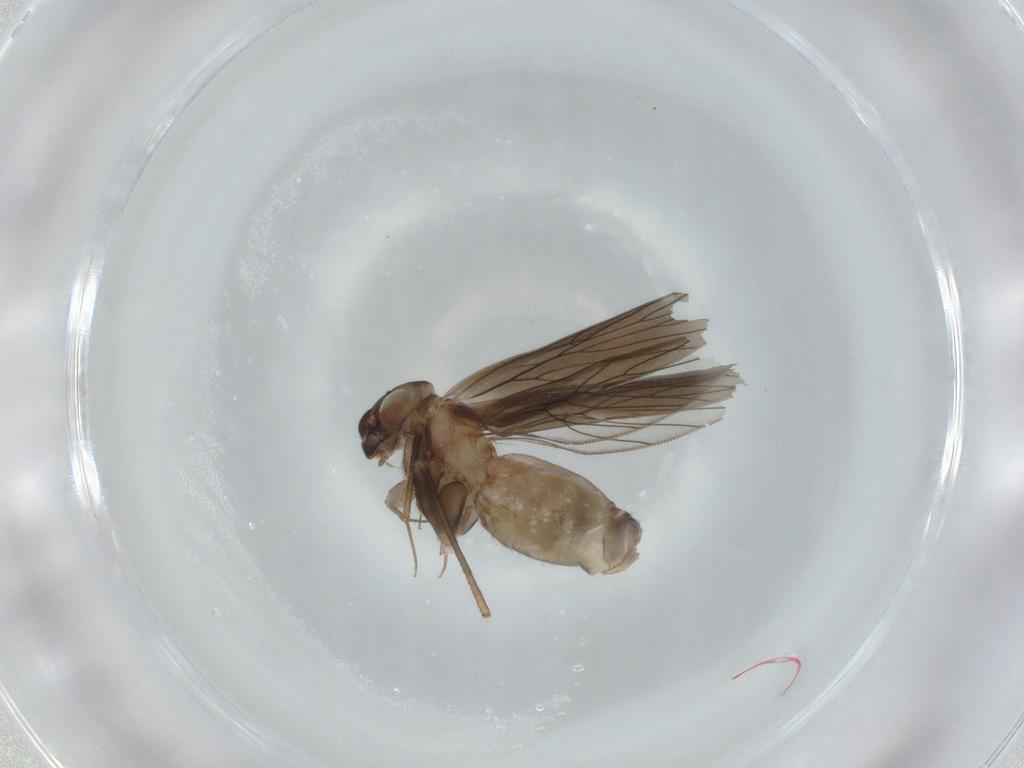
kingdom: Animalia
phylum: Arthropoda
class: Insecta
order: Psocodea
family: Lepidopsocidae
